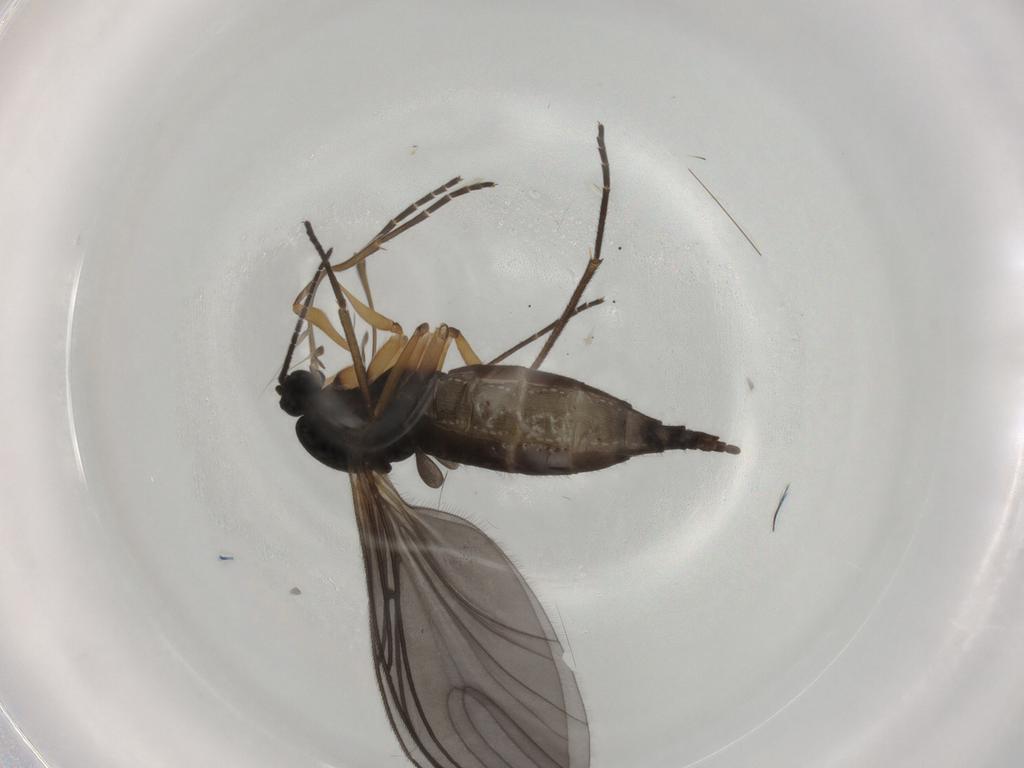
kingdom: Animalia
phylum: Arthropoda
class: Insecta
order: Diptera
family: Sciaridae
